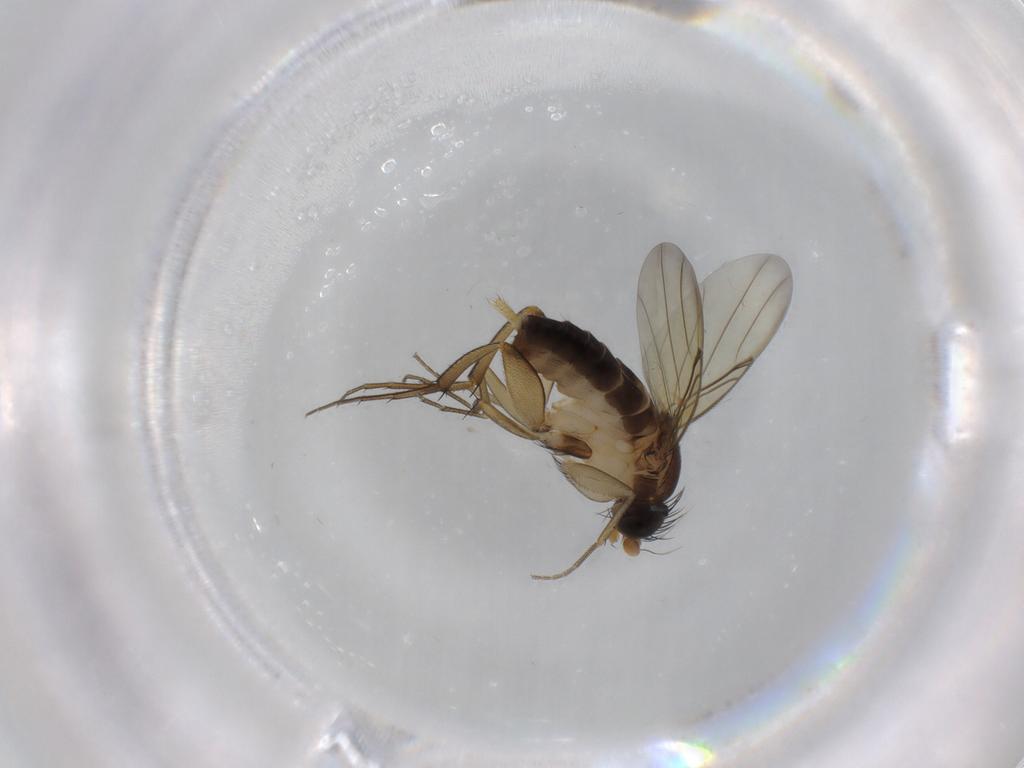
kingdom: Animalia
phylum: Arthropoda
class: Insecta
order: Diptera
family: Phoridae
